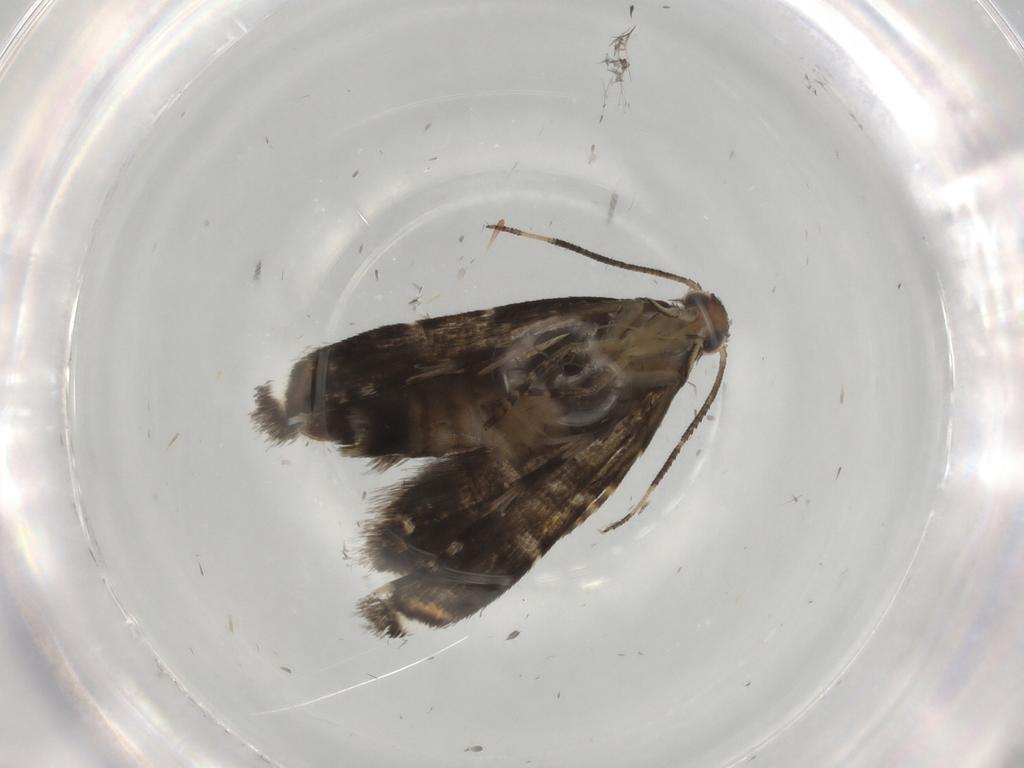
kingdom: Animalia
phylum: Arthropoda
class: Insecta
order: Lepidoptera
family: Glyphipterigidae
